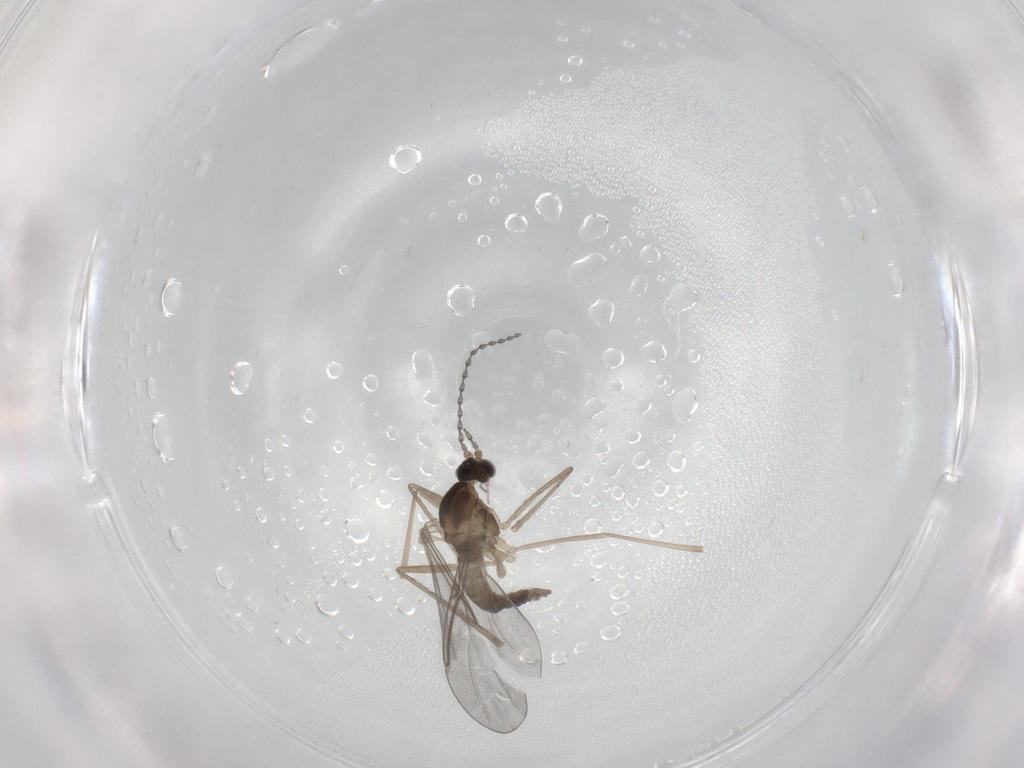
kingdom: Animalia
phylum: Arthropoda
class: Insecta
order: Diptera
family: Cecidomyiidae
